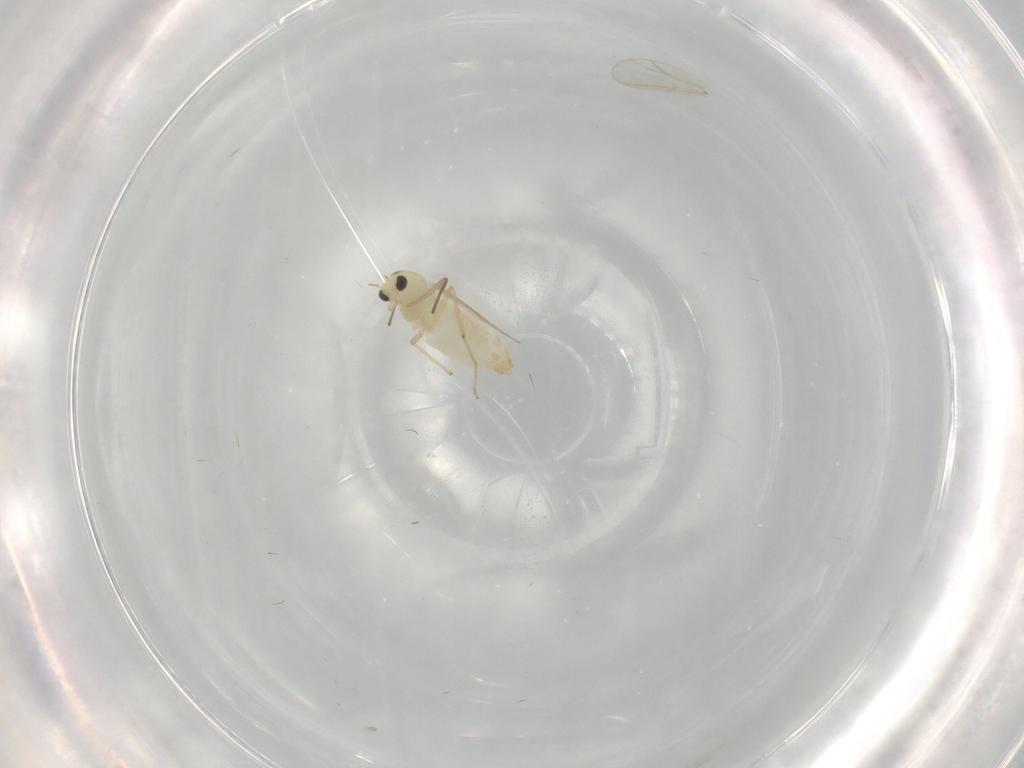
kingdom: Animalia
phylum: Arthropoda
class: Insecta
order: Diptera
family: Chironomidae
